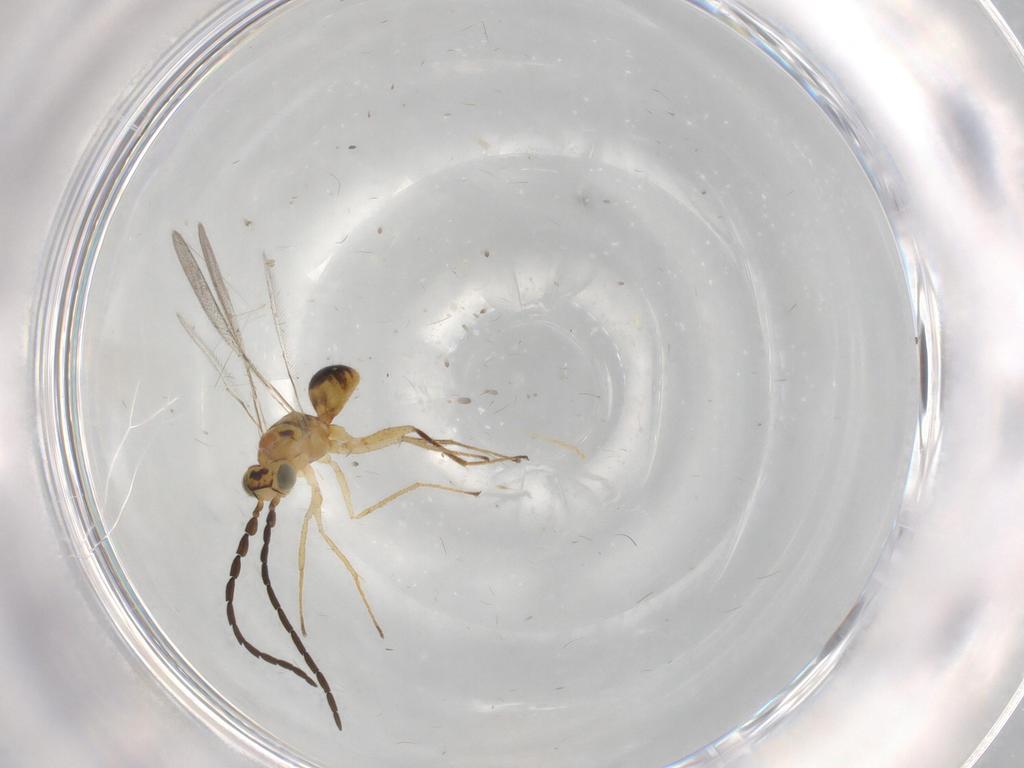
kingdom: Animalia
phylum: Arthropoda
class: Insecta
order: Hymenoptera
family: Mymaridae
